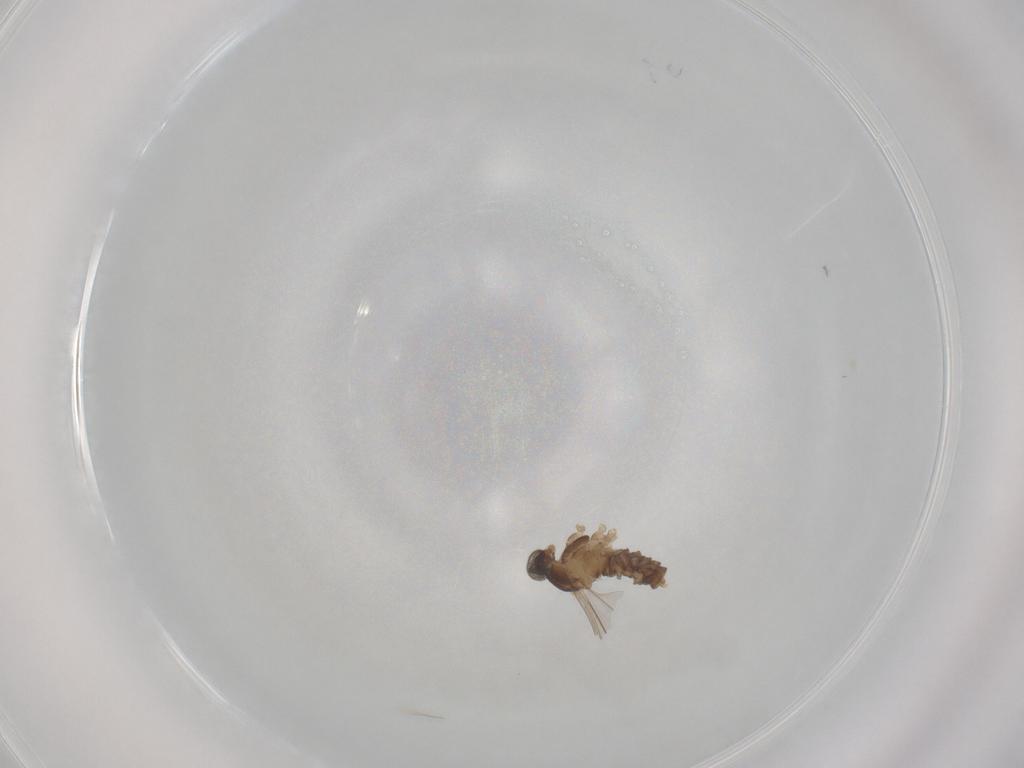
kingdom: Animalia
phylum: Arthropoda
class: Insecta
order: Diptera
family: Cecidomyiidae
